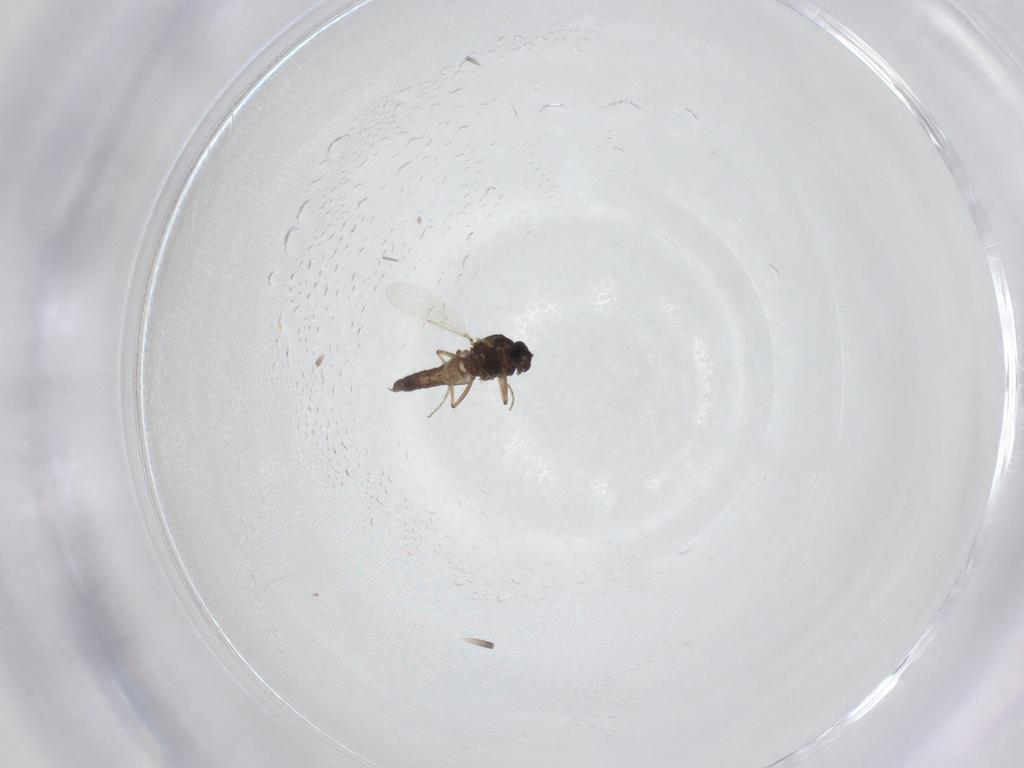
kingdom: Animalia
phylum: Arthropoda
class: Insecta
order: Diptera
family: Ceratopogonidae
